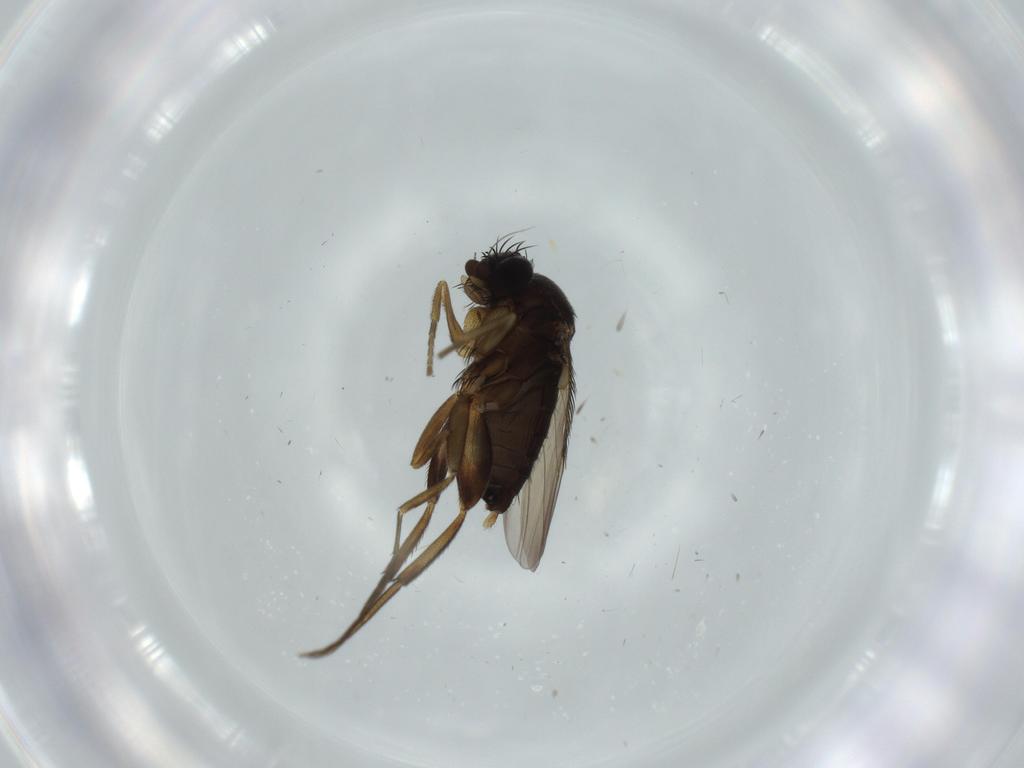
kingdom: Animalia
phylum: Arthropoda
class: Insecta
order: Diptera
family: Phoridae
